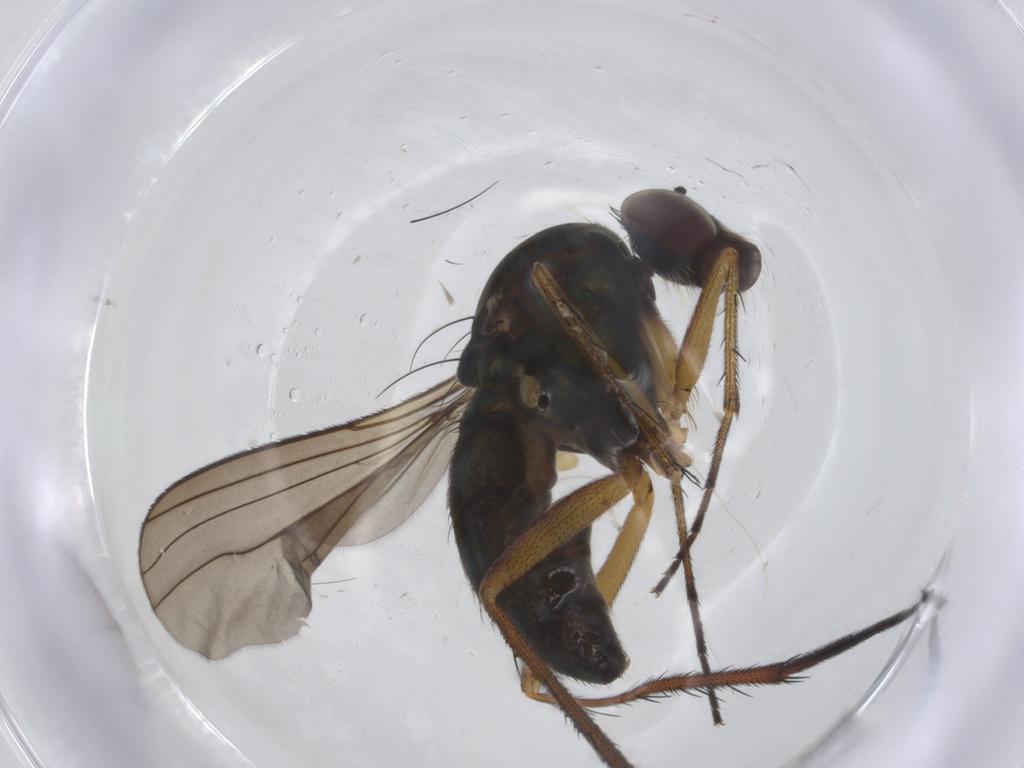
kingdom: Animalia
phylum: Arthropoda
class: Insecta
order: Diptera
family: Dolichopodidae
